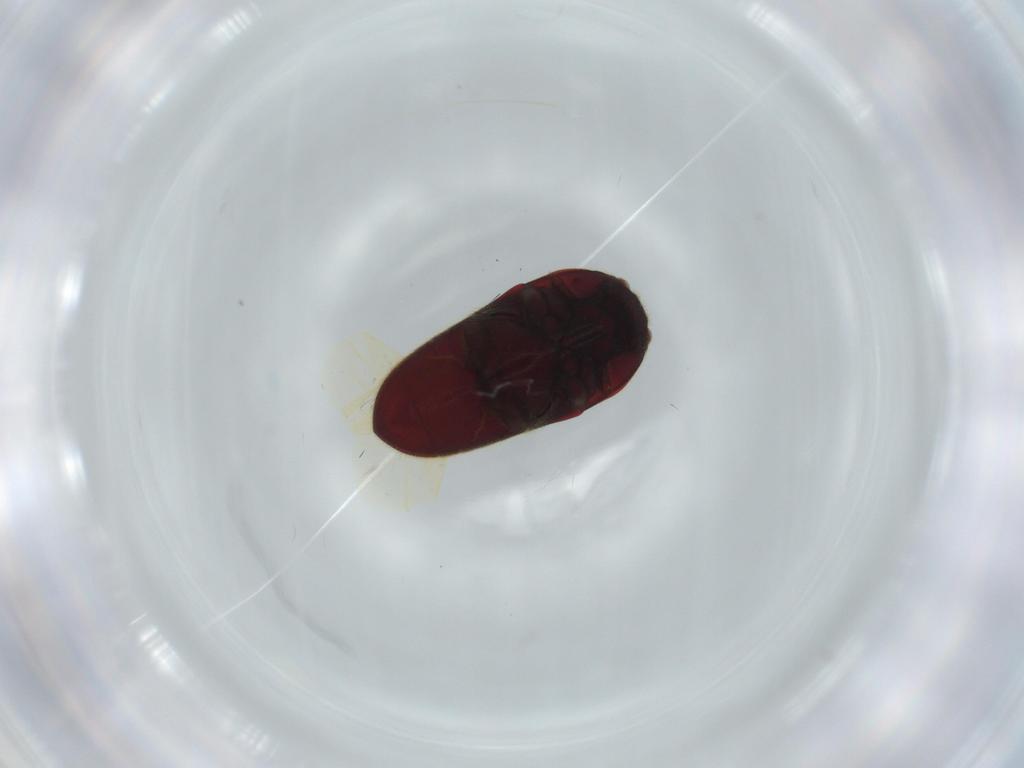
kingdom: Animalia
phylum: Arthropoda
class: Insecta
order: Coleoptera
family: Throscidae
